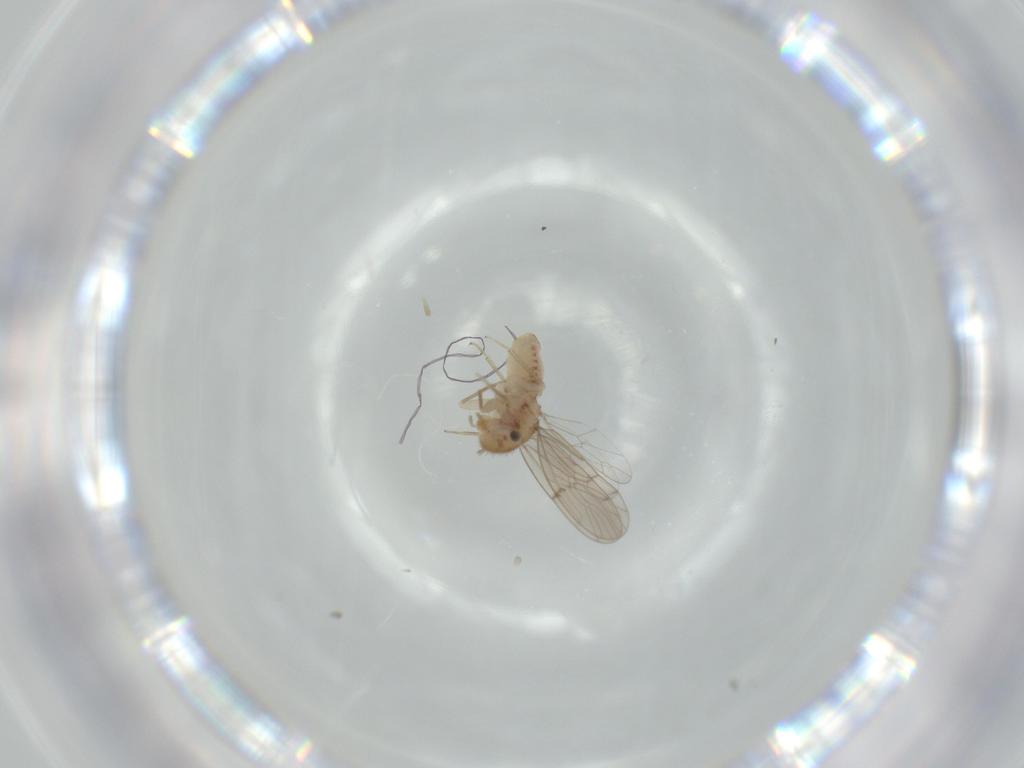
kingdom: Animalia
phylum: Arthropoda
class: Insecta
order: Psocodea
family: Ectopsocidae
